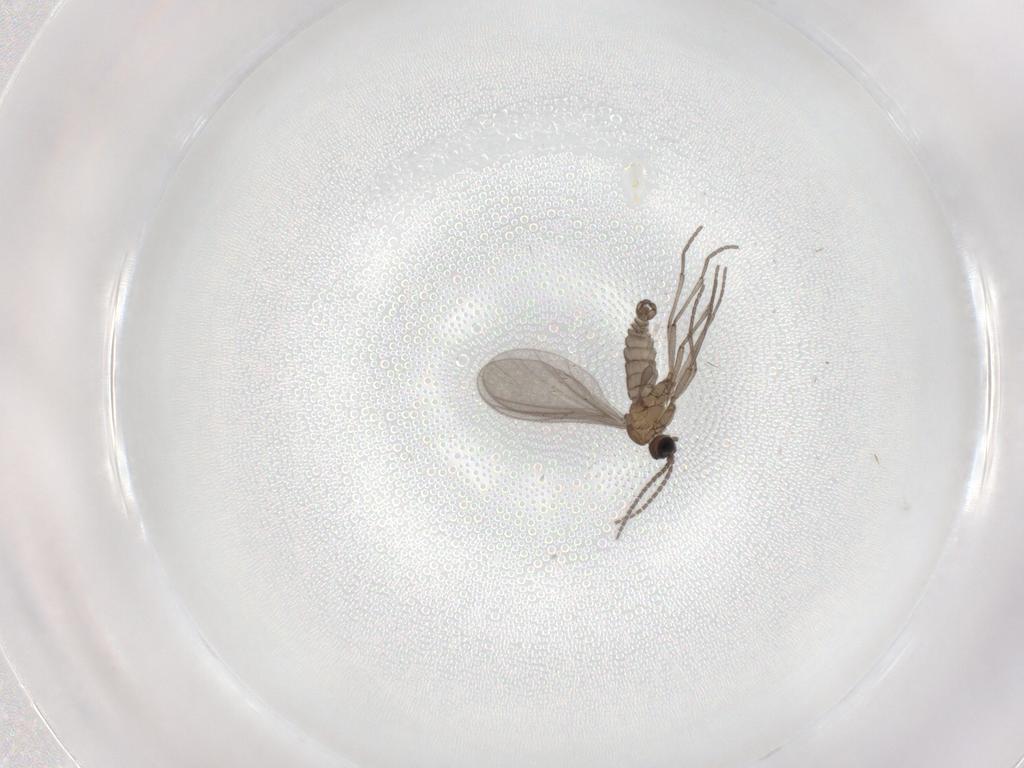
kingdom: Animalia
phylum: Arthropoda
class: Insecta
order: Diptera
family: Sciaridae
